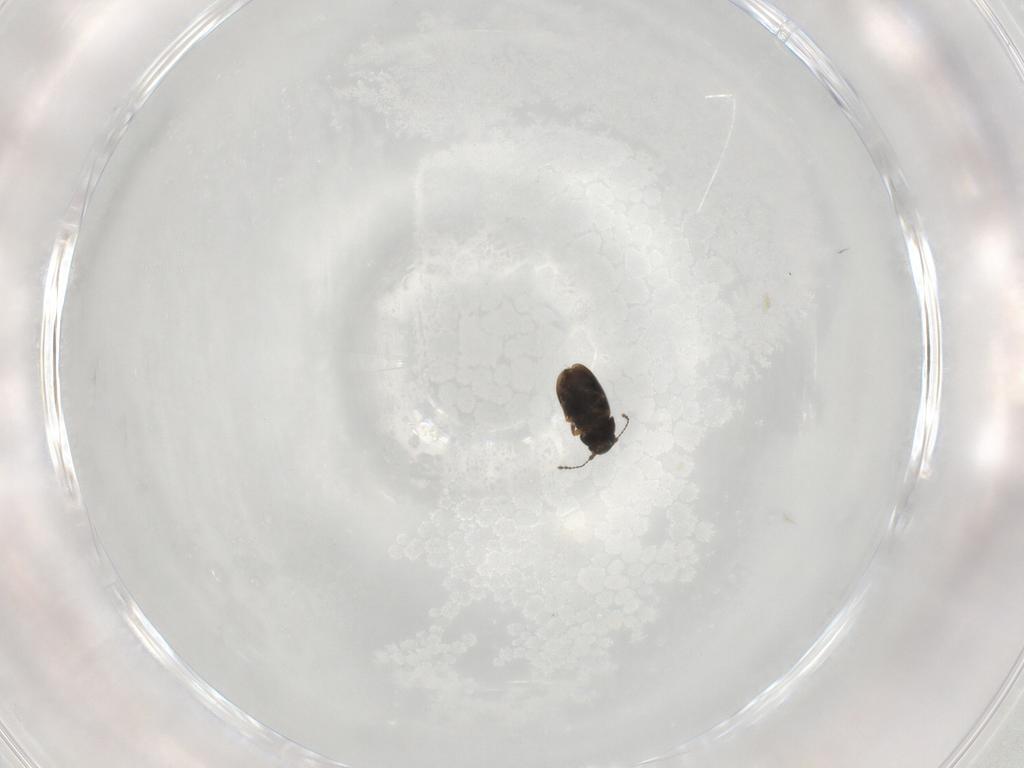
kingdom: Animalia
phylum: Arthropoda
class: Insecta
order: Coleoptera
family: Ptiliidae
